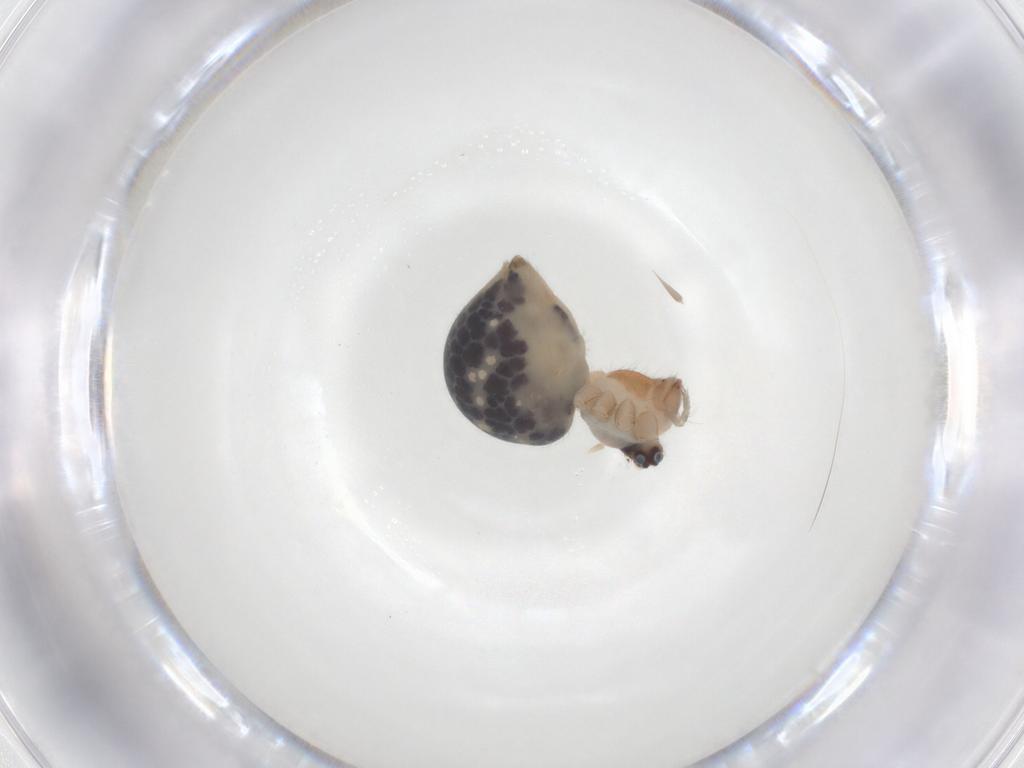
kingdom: Animalia
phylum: Arthropoda
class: Arachnida
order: Araneae
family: Pholcidae
